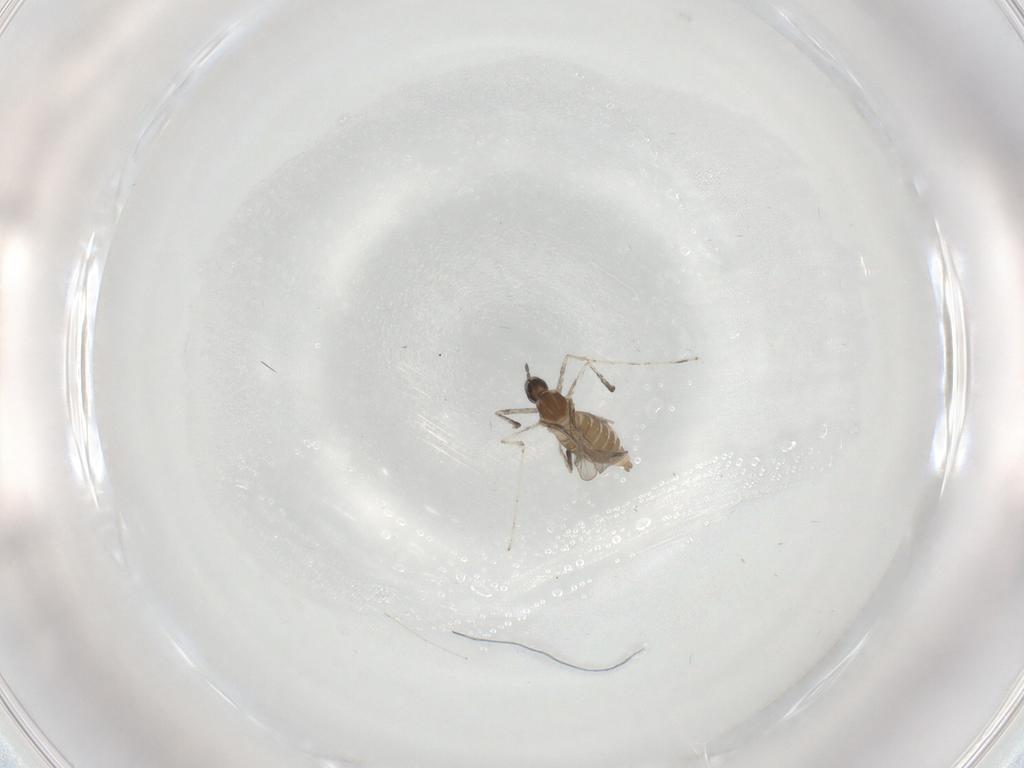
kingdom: Animalia
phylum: Arthropoda
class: Insecta
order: Diptera
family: Cecidomyiidae
